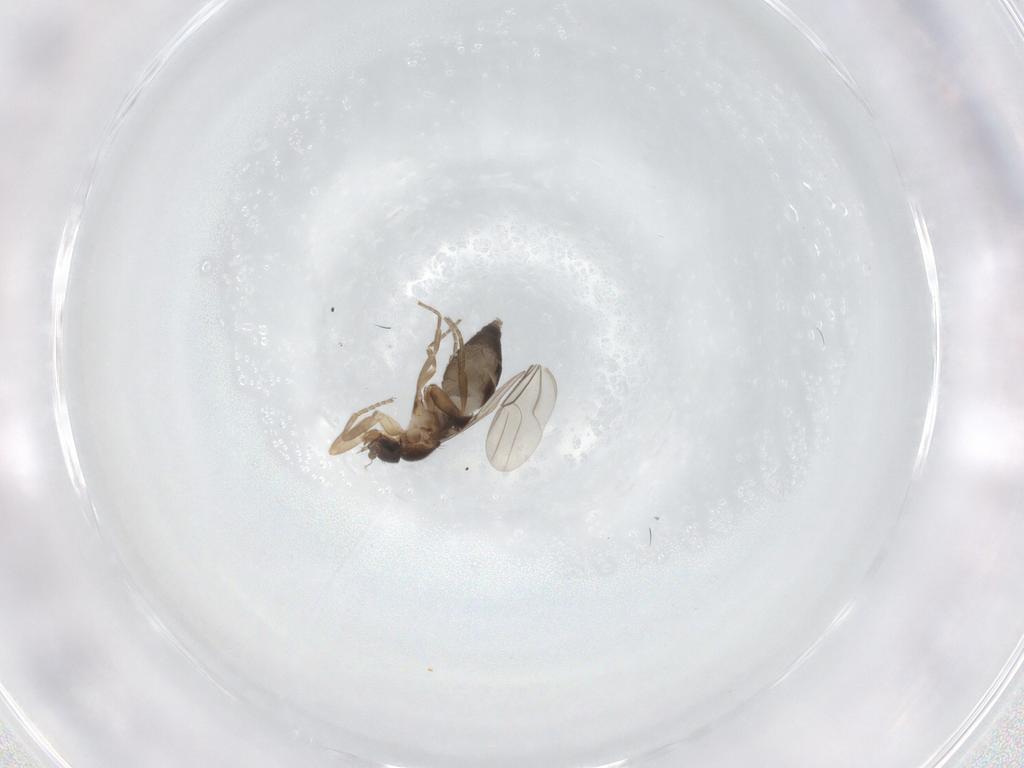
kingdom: Animalia
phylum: Arthropoda
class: Insecta
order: Diptera
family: Phoridae
